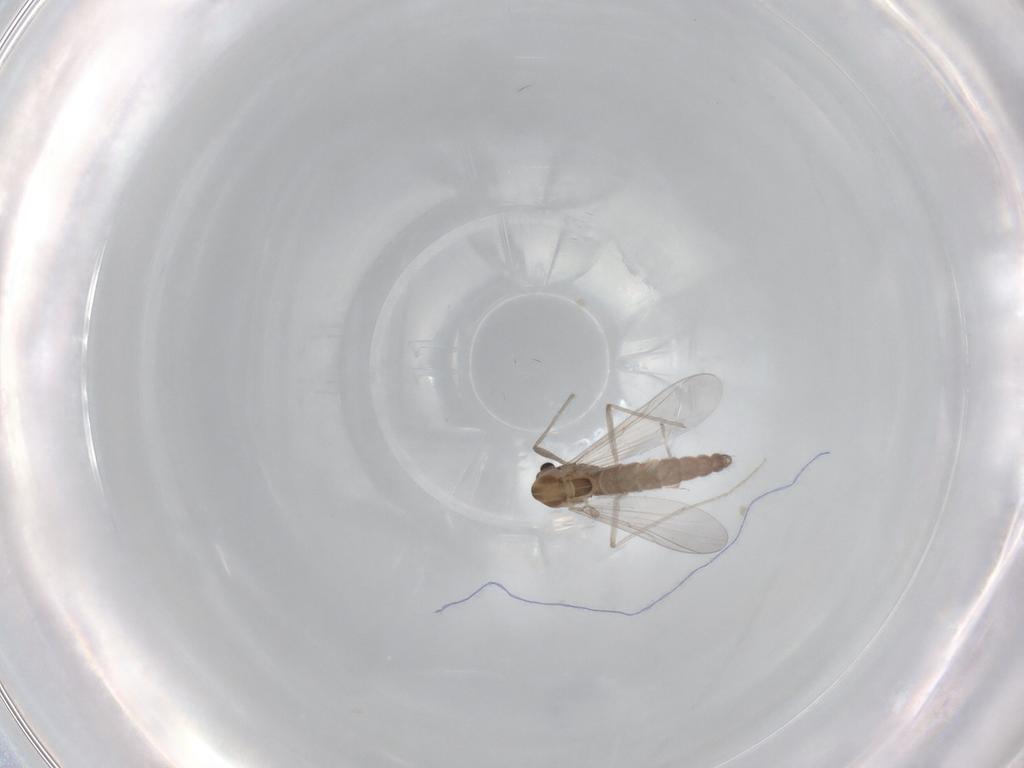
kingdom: Animalia
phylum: Arthropoda
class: Insecta
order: Diptera
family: Chironomidae
